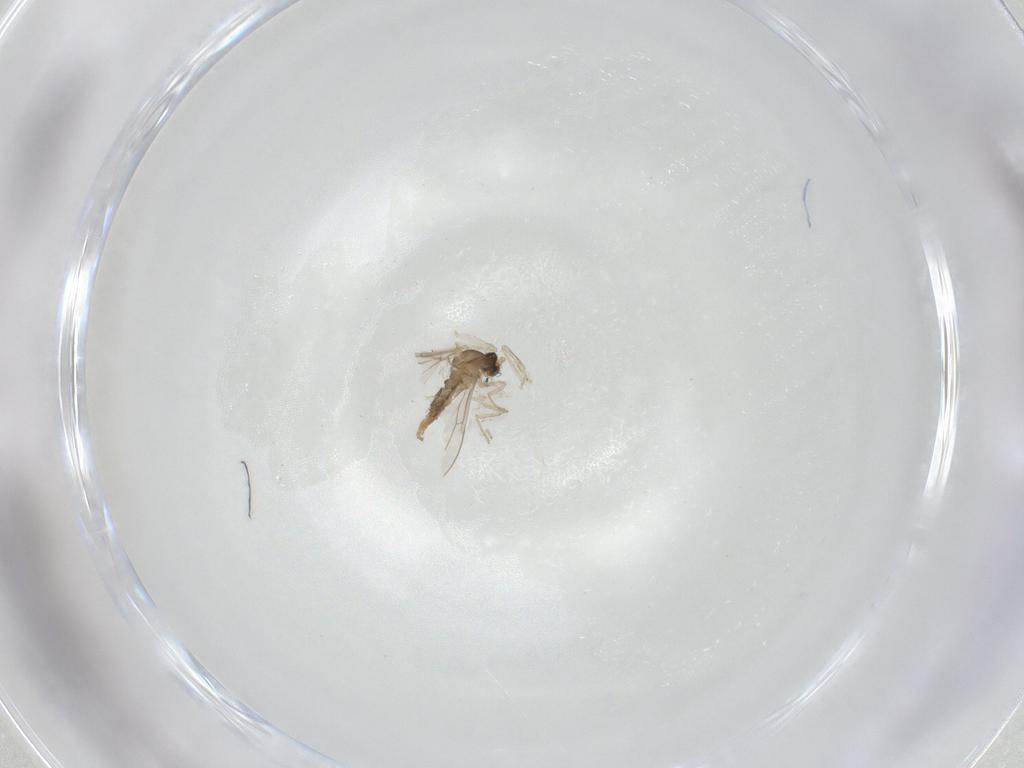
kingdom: Animalia
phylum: Arthropoda
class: Insecta
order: Diptera
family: Cecidomyiidae
